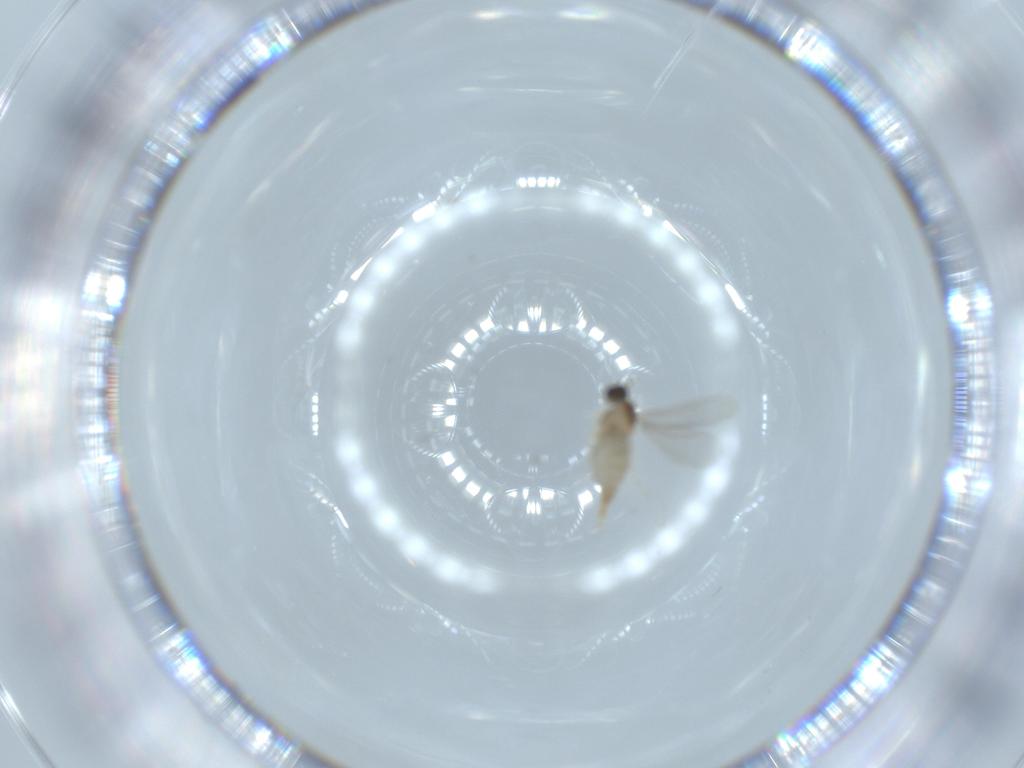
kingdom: Animalia
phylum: Arthropoda
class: Insecta
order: Diptera
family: Cecidomyiidae
